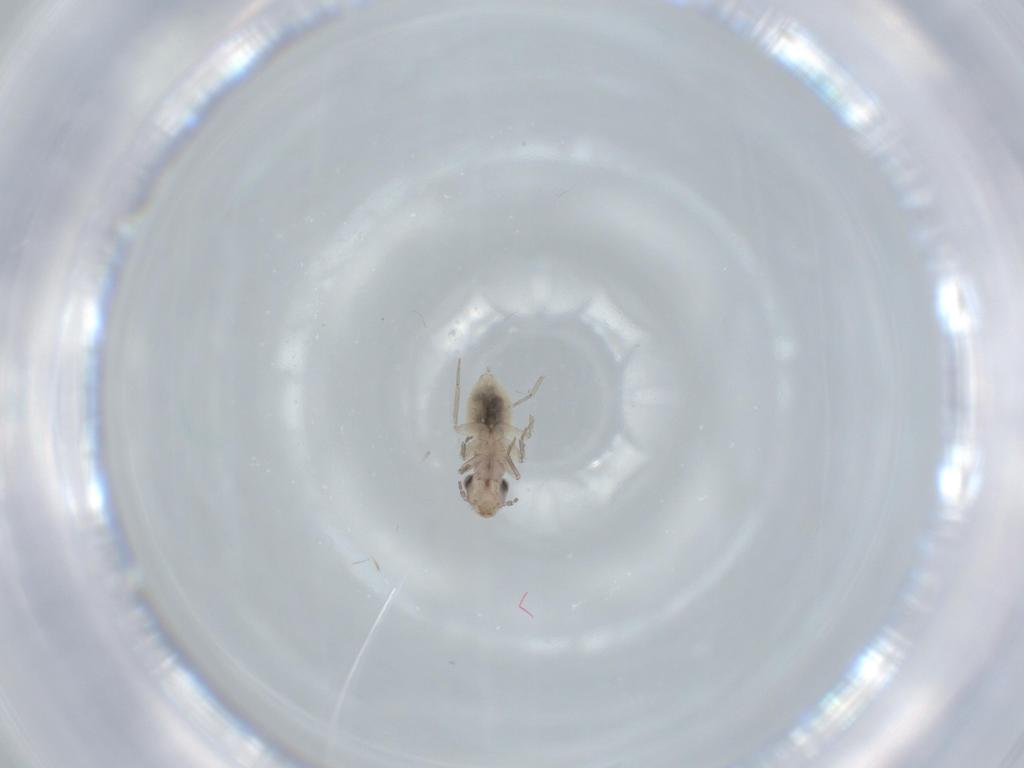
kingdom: Animalia
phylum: Arthropoda
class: Insecta
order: Psocodea
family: Lepidopsocidae
